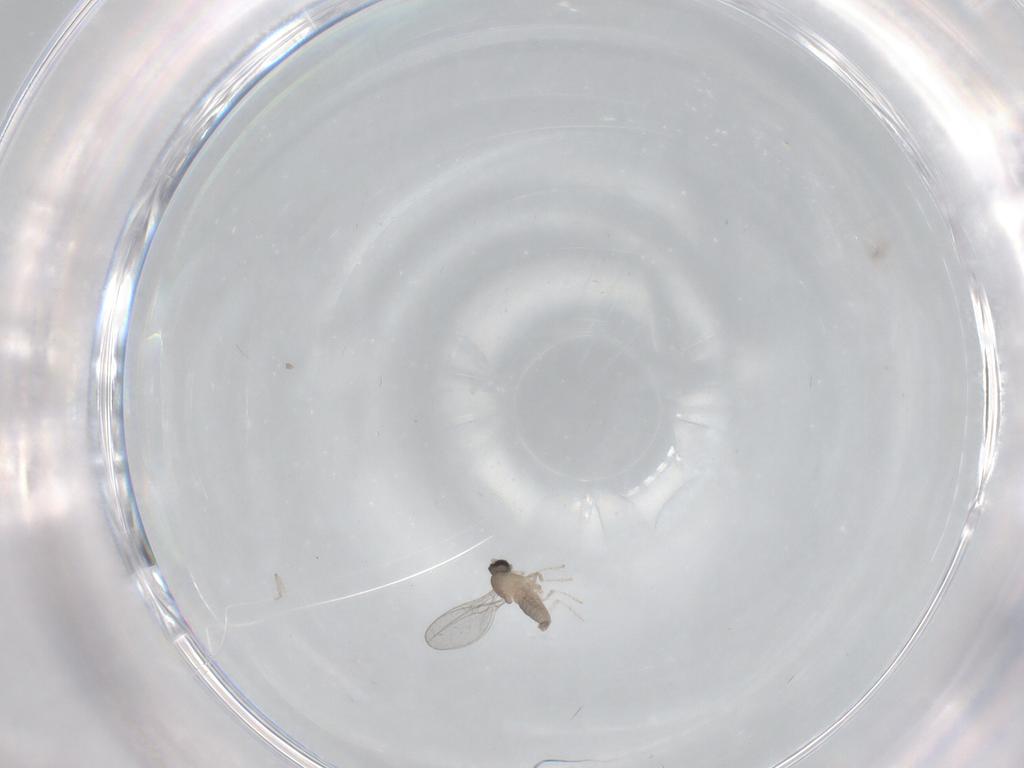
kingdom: Animalia
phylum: Arthropoda
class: Insecta
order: Diptera
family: Cecidomyiidae
